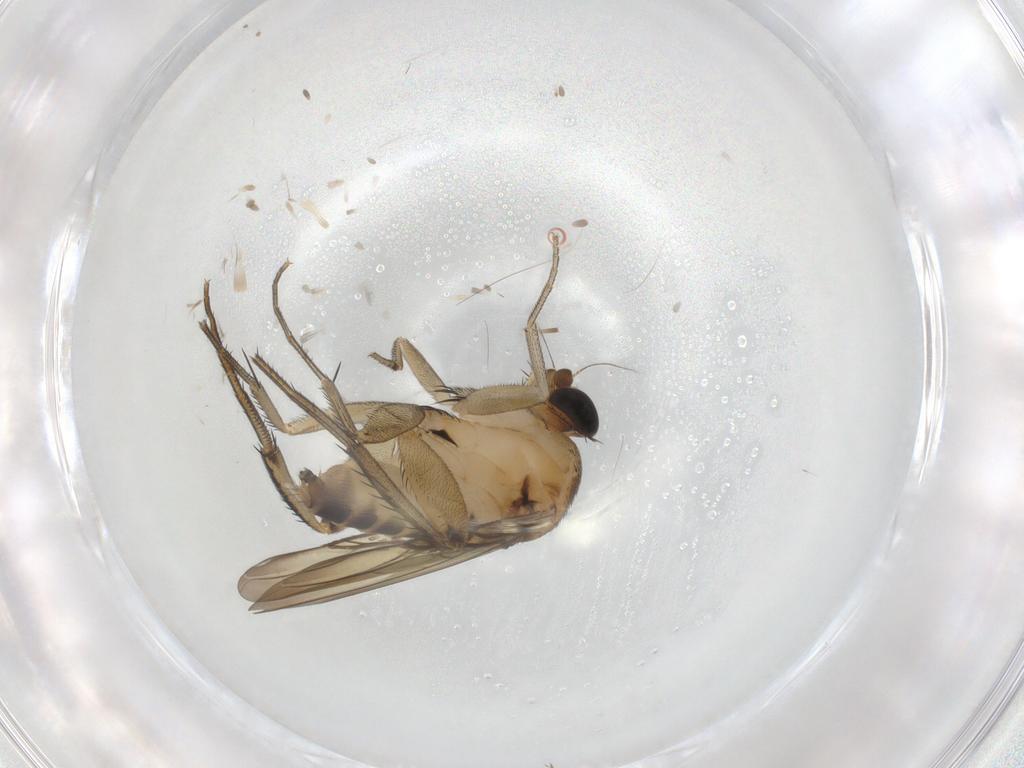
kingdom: Animalia
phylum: Arthropoda
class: Insecta
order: Diptera
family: Phoridae
